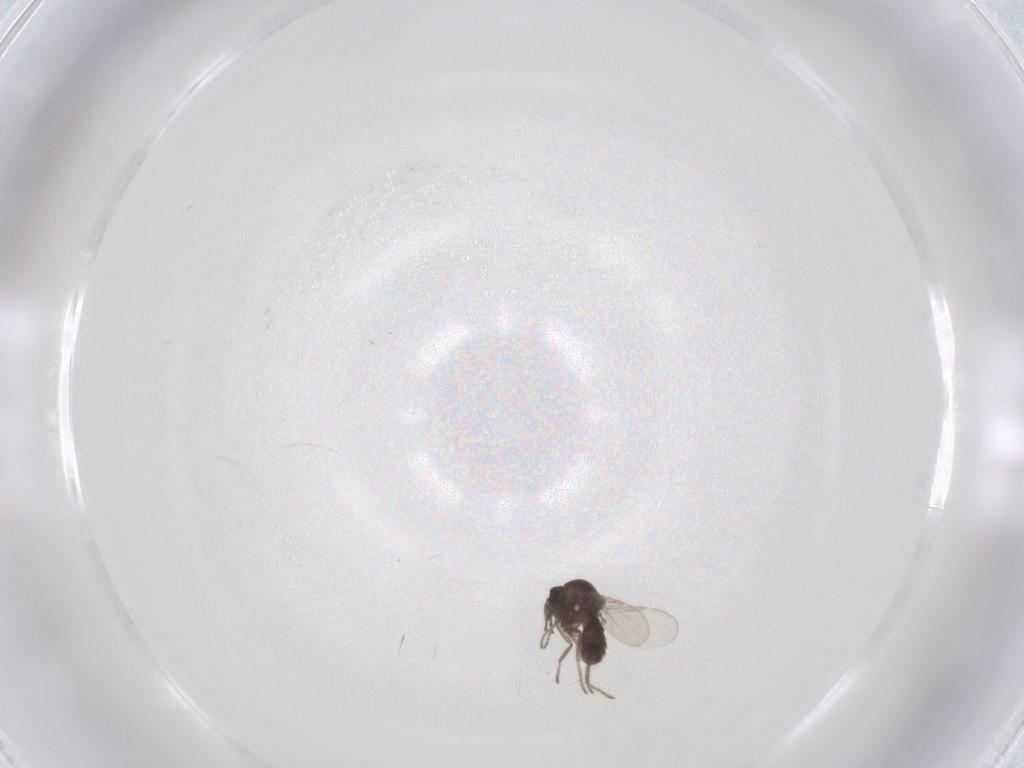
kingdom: Animalia
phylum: Arthropoda
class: Insecta
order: Diptera
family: Ceratopogonidae
